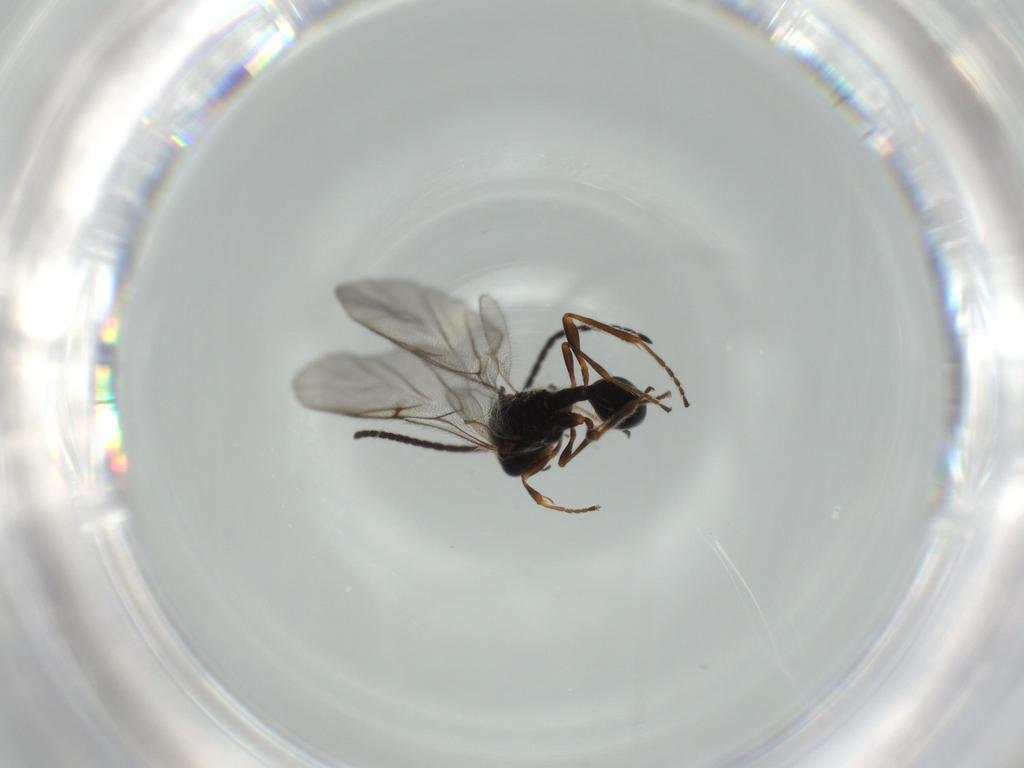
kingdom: Animalia
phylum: Arthropoda
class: Insecta
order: Hymenoptera
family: Diapriidae
